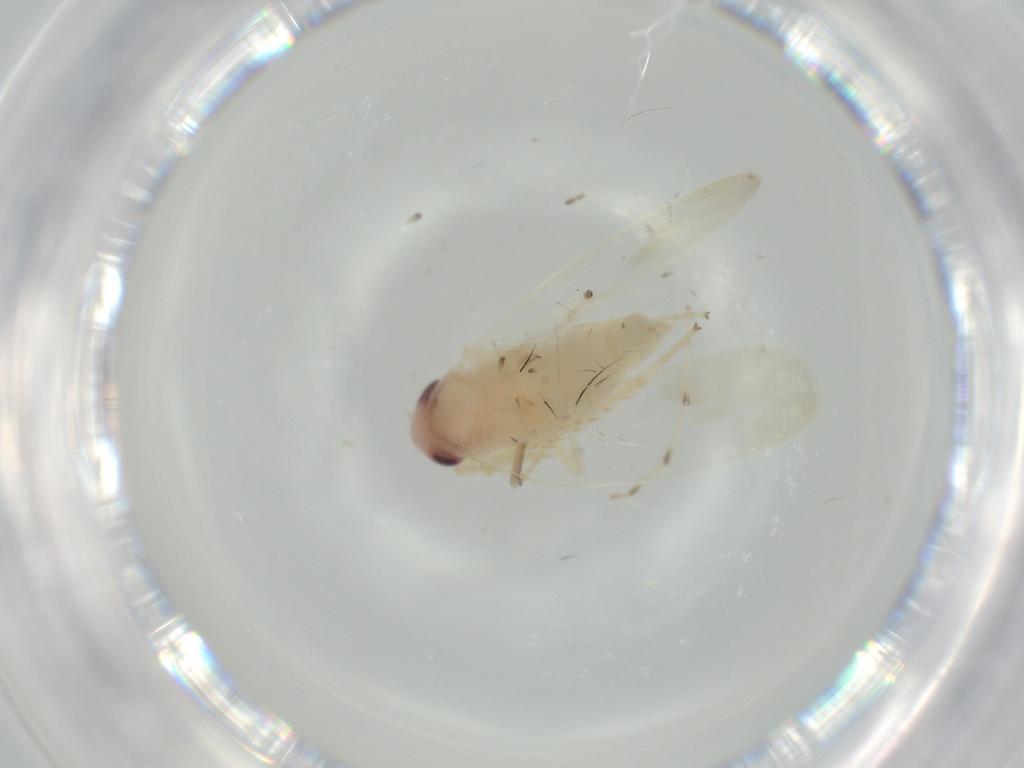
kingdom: Animalia
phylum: Arthropoda
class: Insecta
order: Hemiptera
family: Cicadellidae
